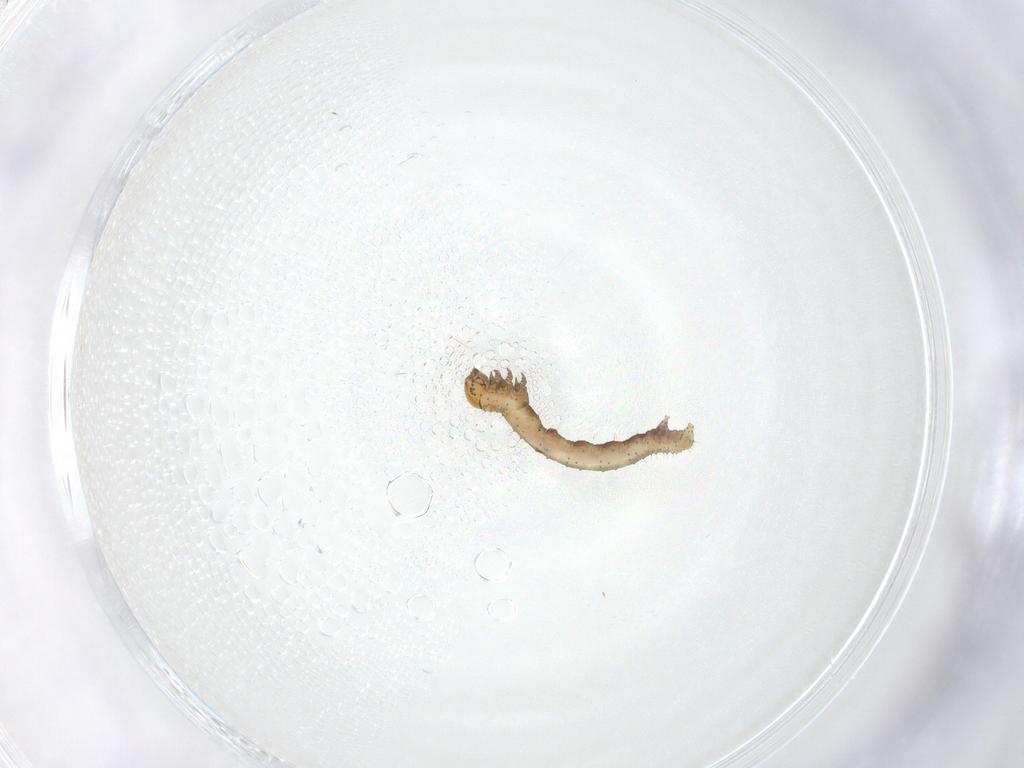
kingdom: Animalia
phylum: Arthropoda
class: Insecta
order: Lepidoptera
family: Geometridae
